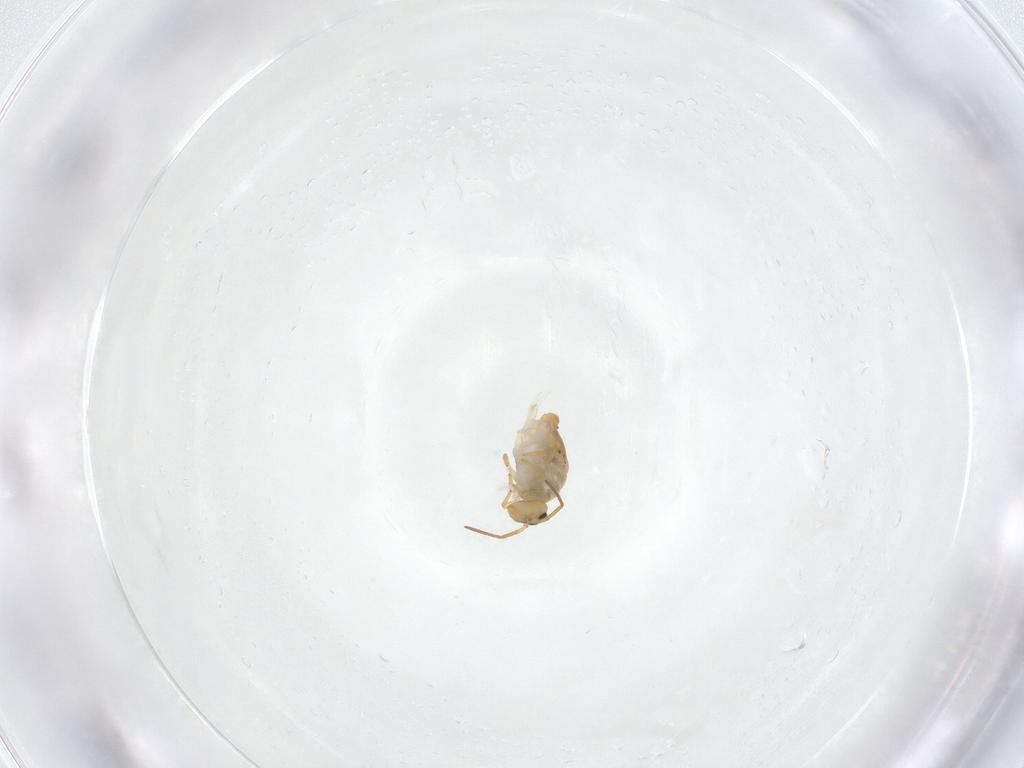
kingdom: Animalia
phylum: Arthropoda
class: Collembola
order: Symphypleona
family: Katiannidae
